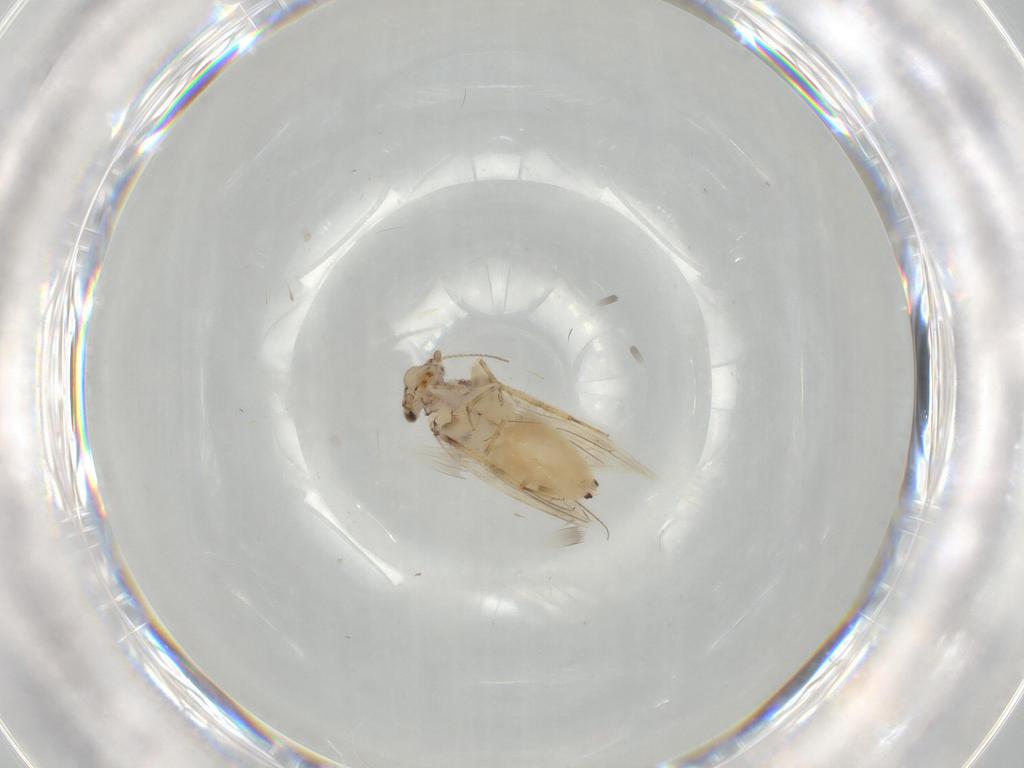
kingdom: Animalia
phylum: Arthropoda
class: Insecta
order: Psocodea
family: Lepidopsocidae
